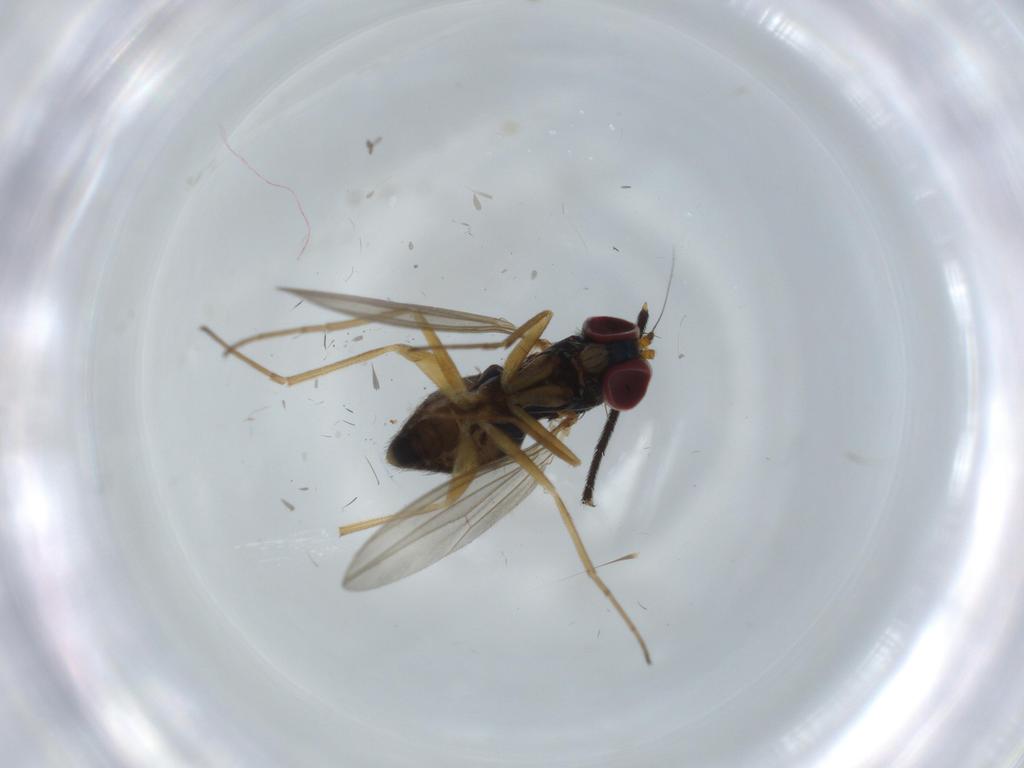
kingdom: Animalia
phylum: Arthropoda
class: Insecta
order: Diptera
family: Dolichopodidae
